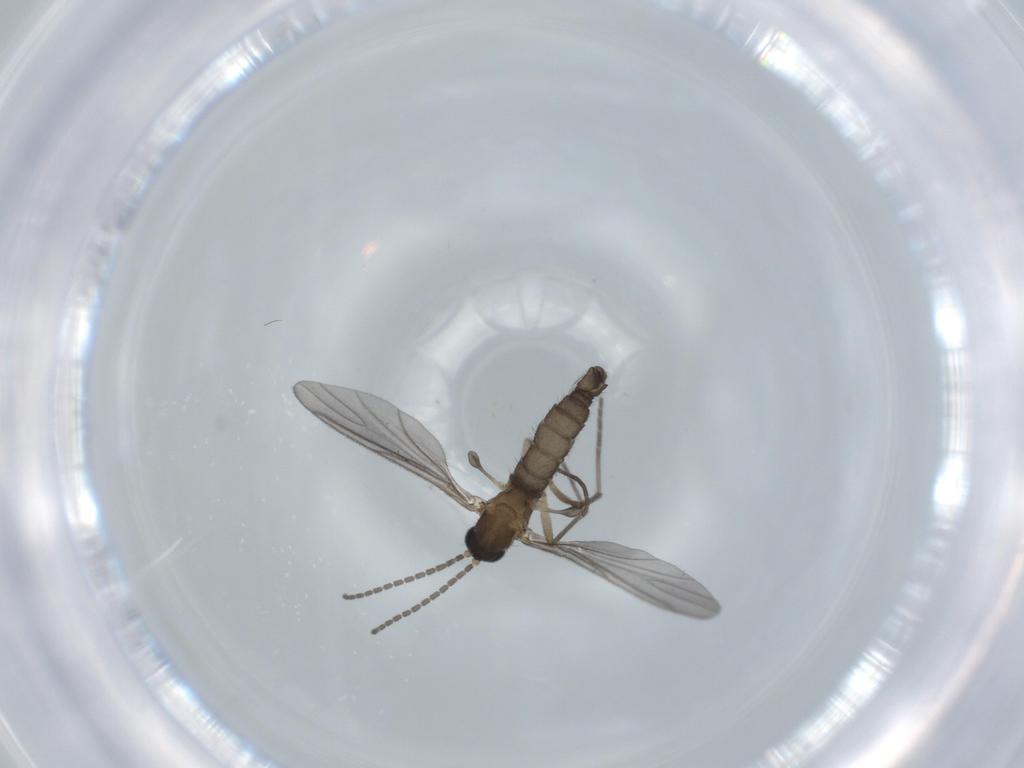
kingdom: Animalia
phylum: Arthropoda
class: Insecta
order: Diptera
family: Sciaridae
